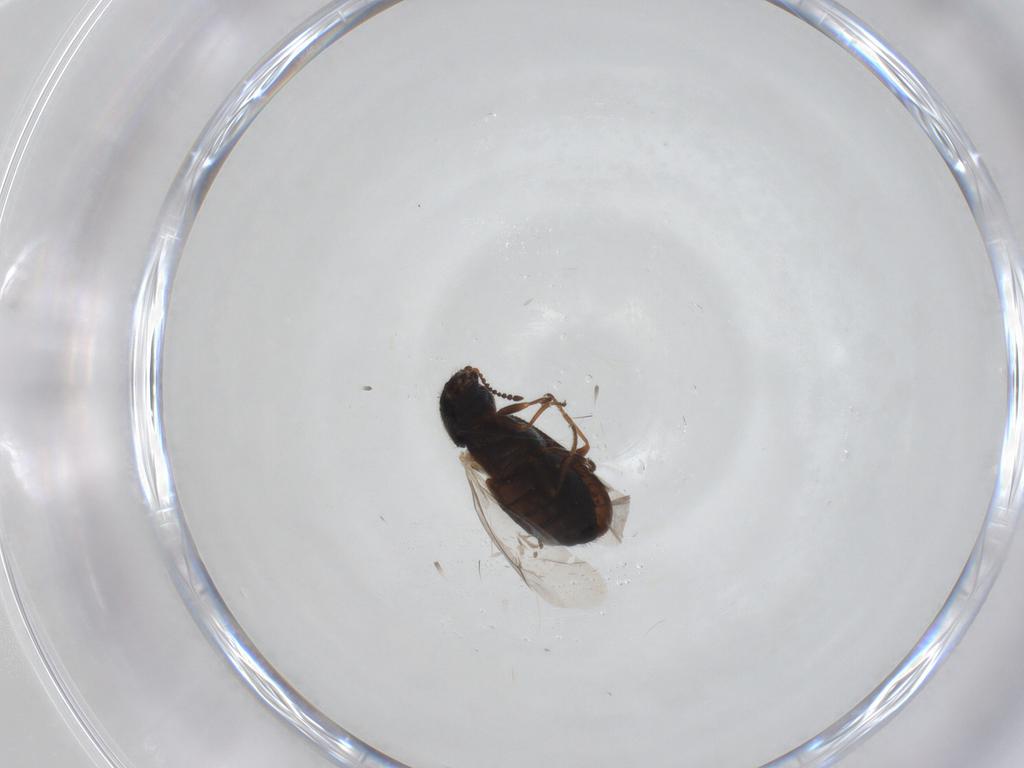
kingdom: Animalia
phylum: Arthropoda
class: Insecta
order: Coleoptera
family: Melyridae
